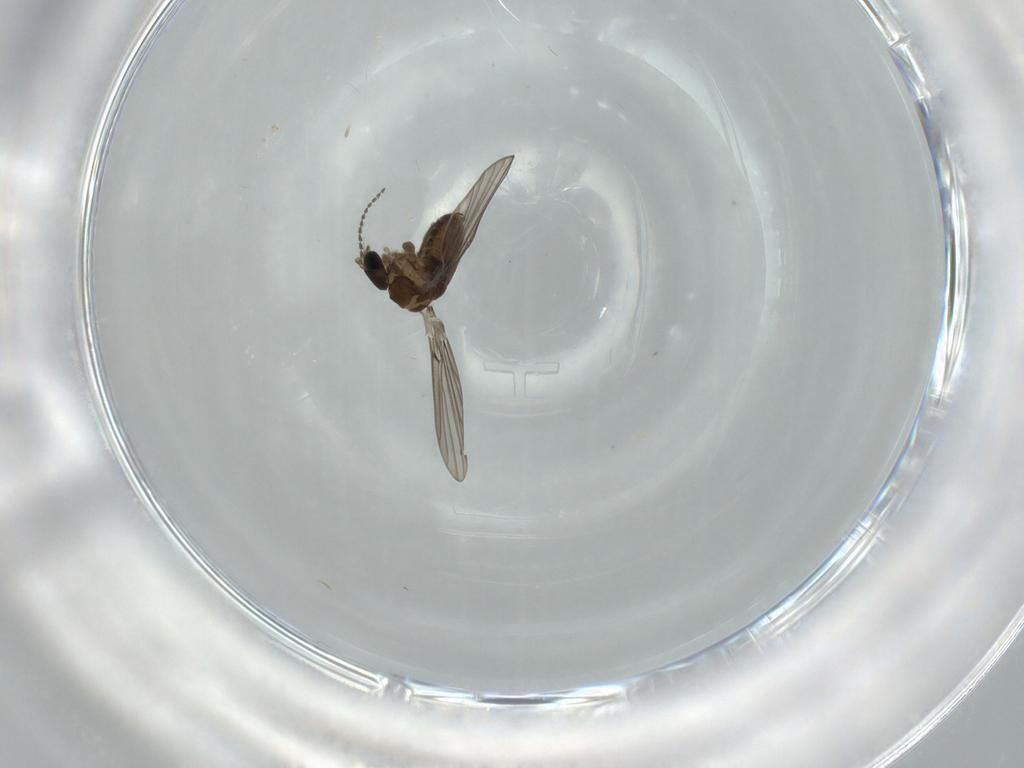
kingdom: Animalia
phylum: Arthropoda
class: Insecta
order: Diptera
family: Psychodidae
